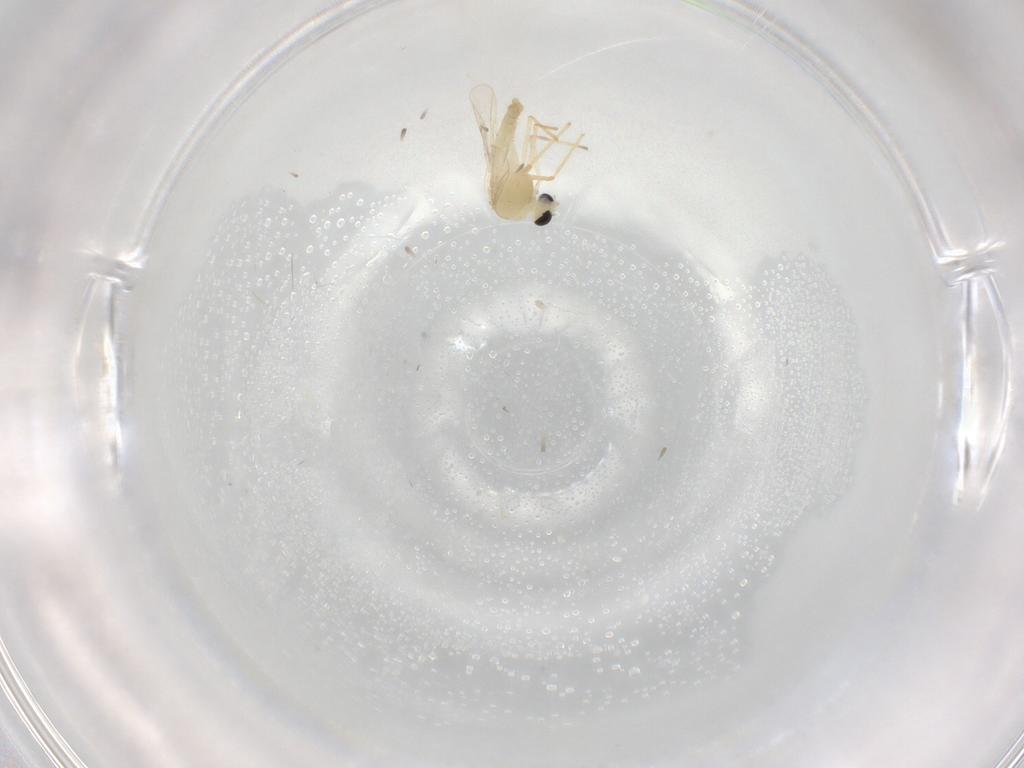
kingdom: Animalia
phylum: Arthropoda
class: Insecta
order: Diptera
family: Chironomidae
